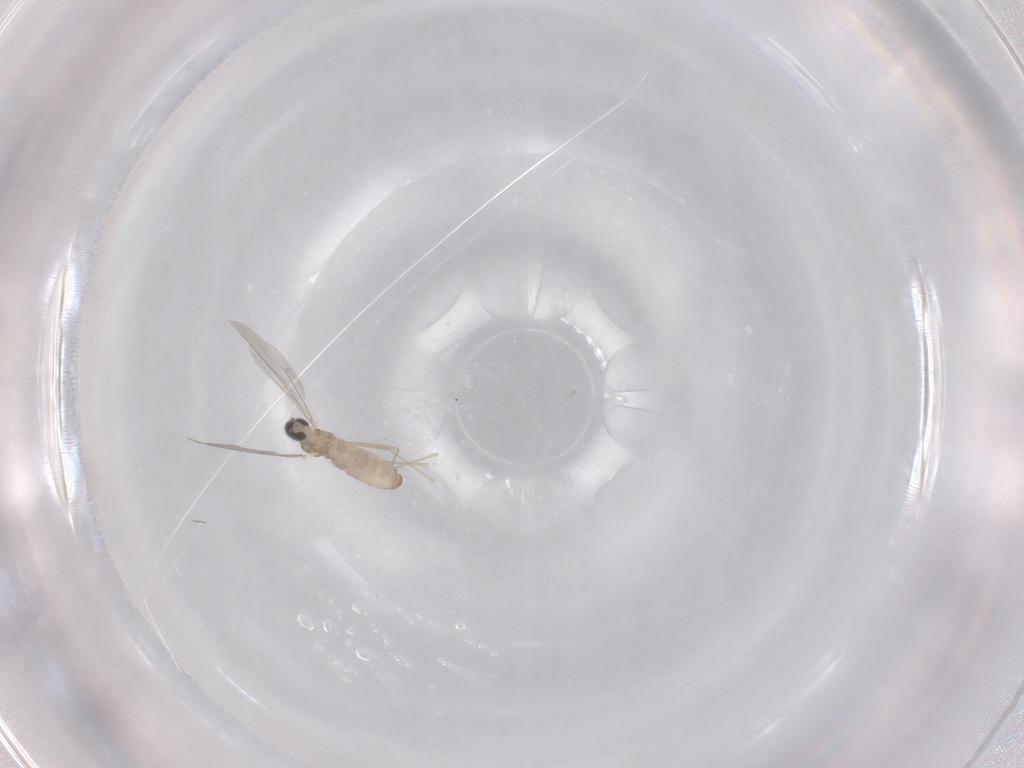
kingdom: Animalia
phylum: Arthropoda
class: Insecta
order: Diptera
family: Cecidomyiidae
